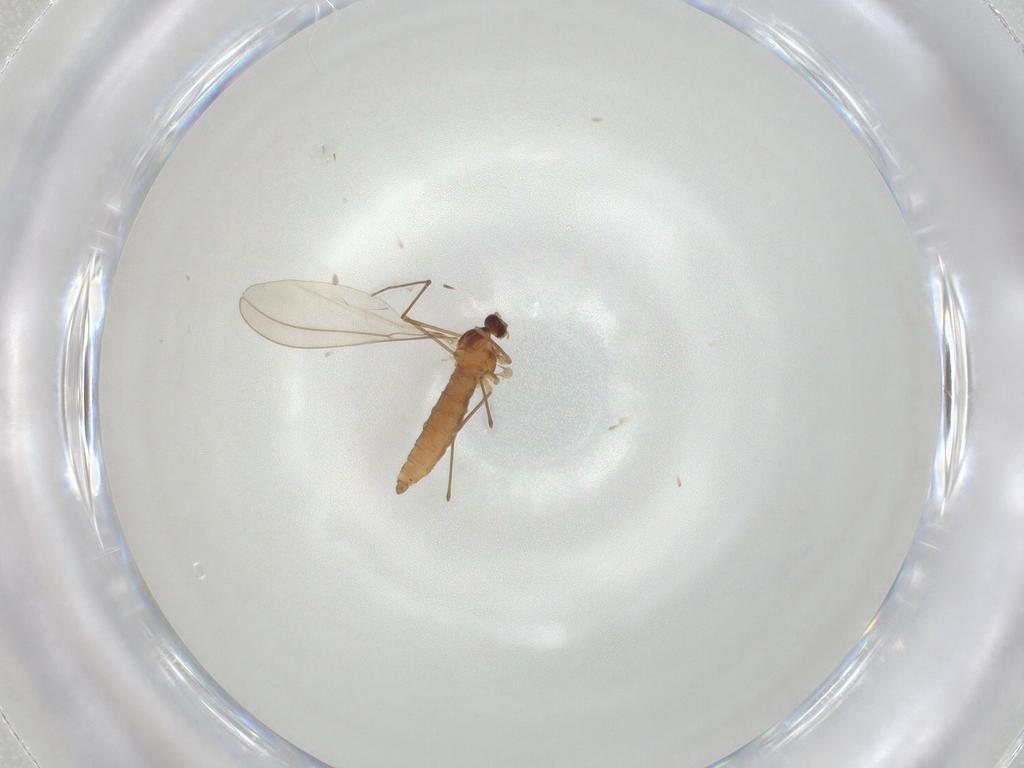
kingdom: Animalia
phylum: Arthropoda
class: Insecta
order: Diptera
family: Cecidomyiidae
